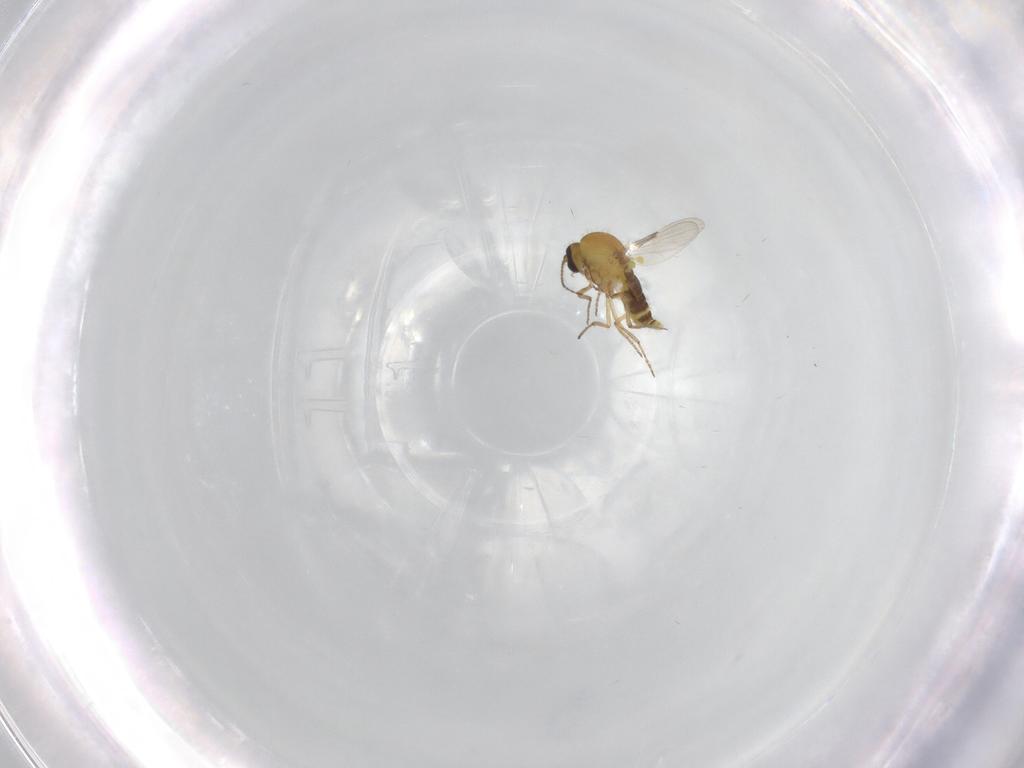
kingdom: Animalia
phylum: Arthropoda
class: Insecta
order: Diptera
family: Ceratopogonidae
